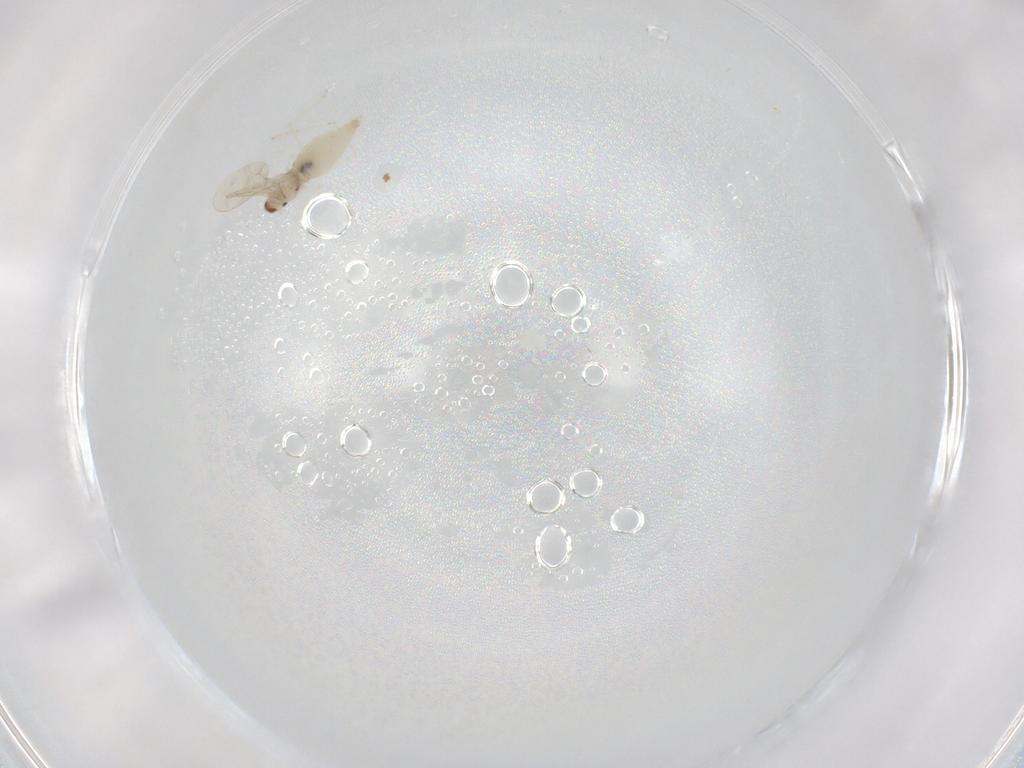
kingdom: Animalia
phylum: Arthropoda
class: Insecta
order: Diptera
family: Cecidomyiidae
